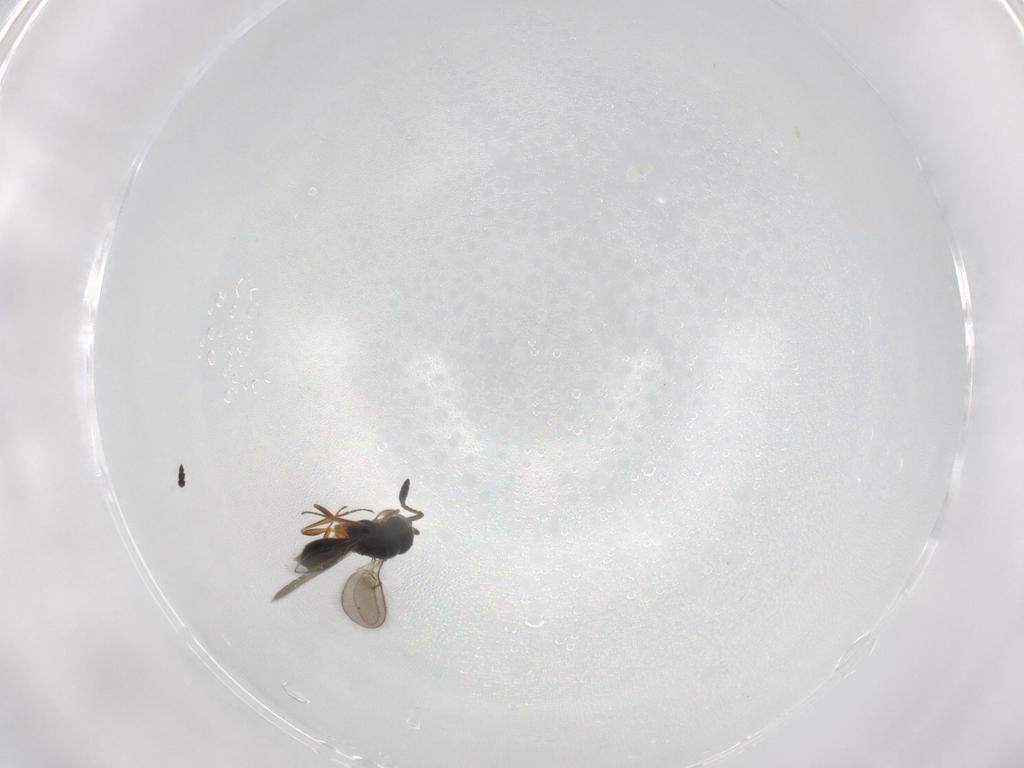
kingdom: Animalia
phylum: Arthropoda
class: Insecta
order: Hymenoptera
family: Scelionidae
